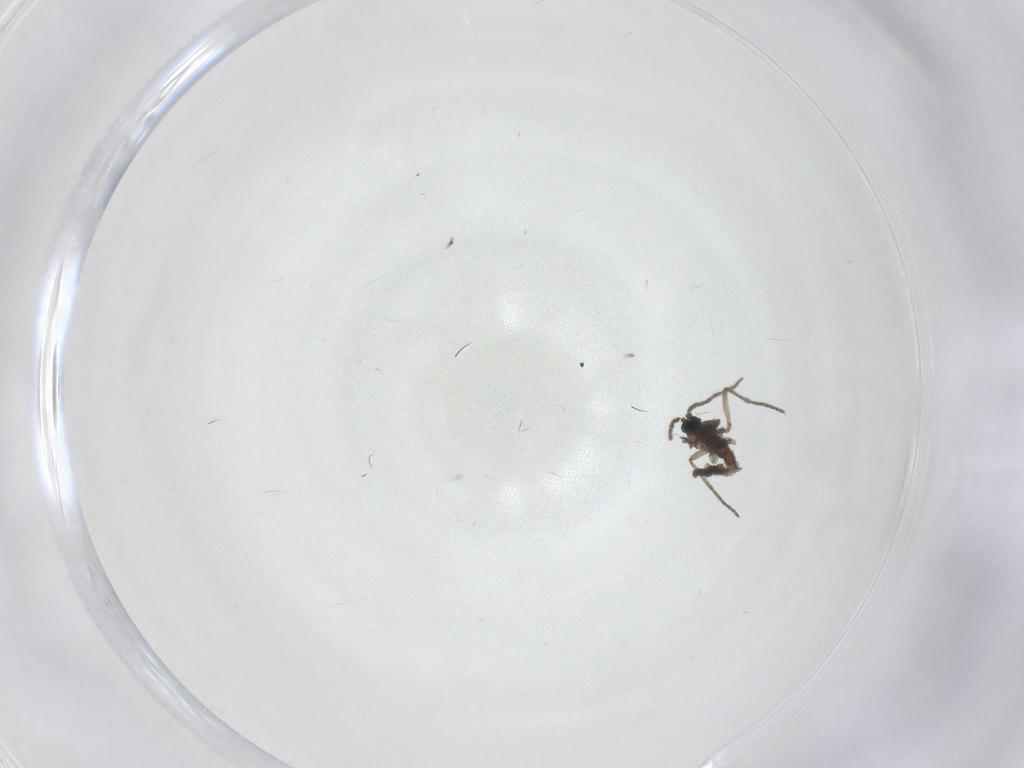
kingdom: Animalia
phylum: Arthropoda
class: Insecta
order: Diptera
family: Sciaridae
